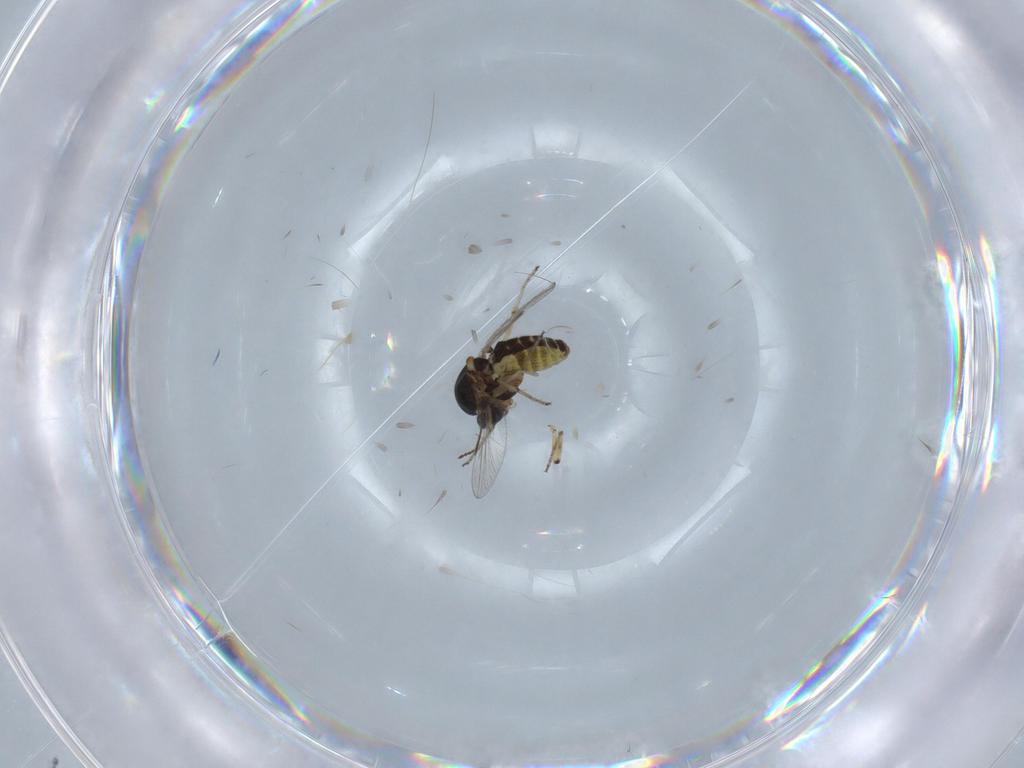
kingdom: Animalia
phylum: Arthropoda
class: Insecta
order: Diptera
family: Ceratopogonidae
